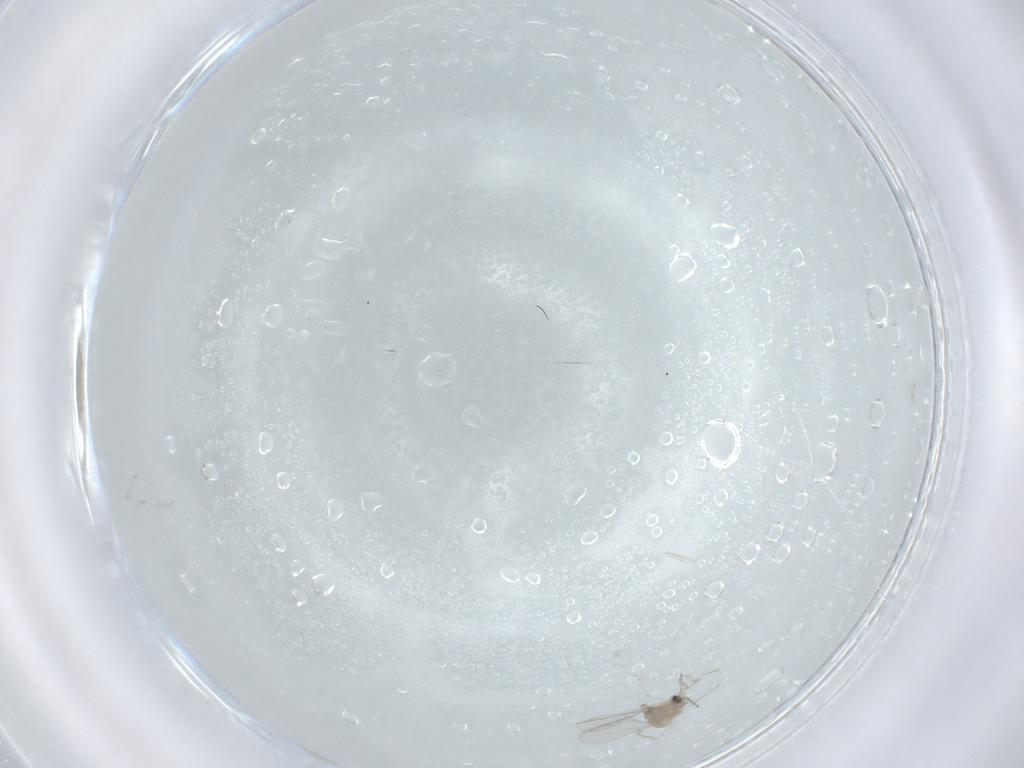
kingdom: Animalia
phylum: Arthropoda
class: Insecta
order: Diptera
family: Cecidomyiidae
